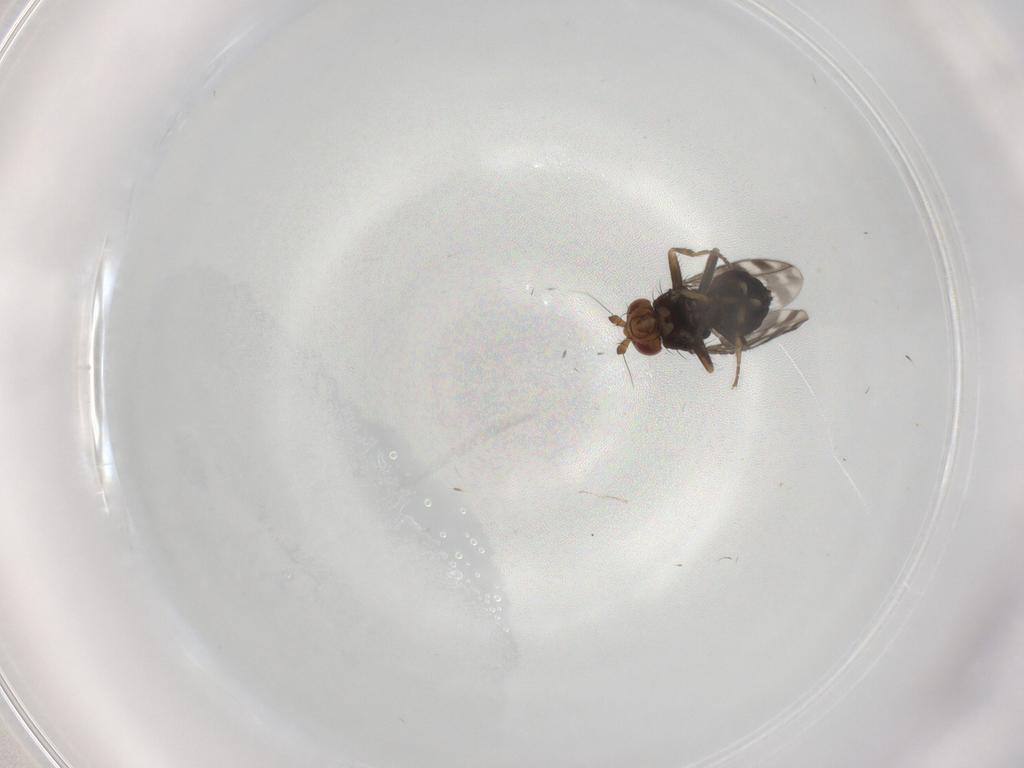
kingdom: Animalia
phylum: Arthropoda
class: Insecta
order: Diptera
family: Sphaeroceridae
